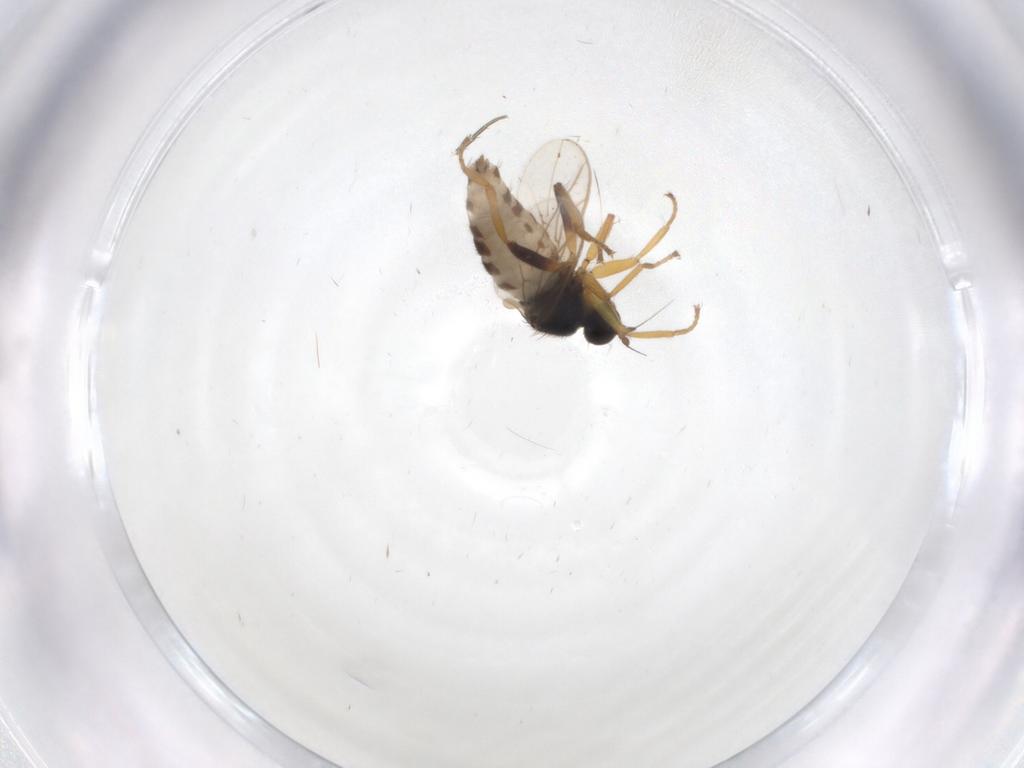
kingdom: Animalia
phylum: Arthropoda
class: Insecta
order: Diptera
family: Hybotidae
